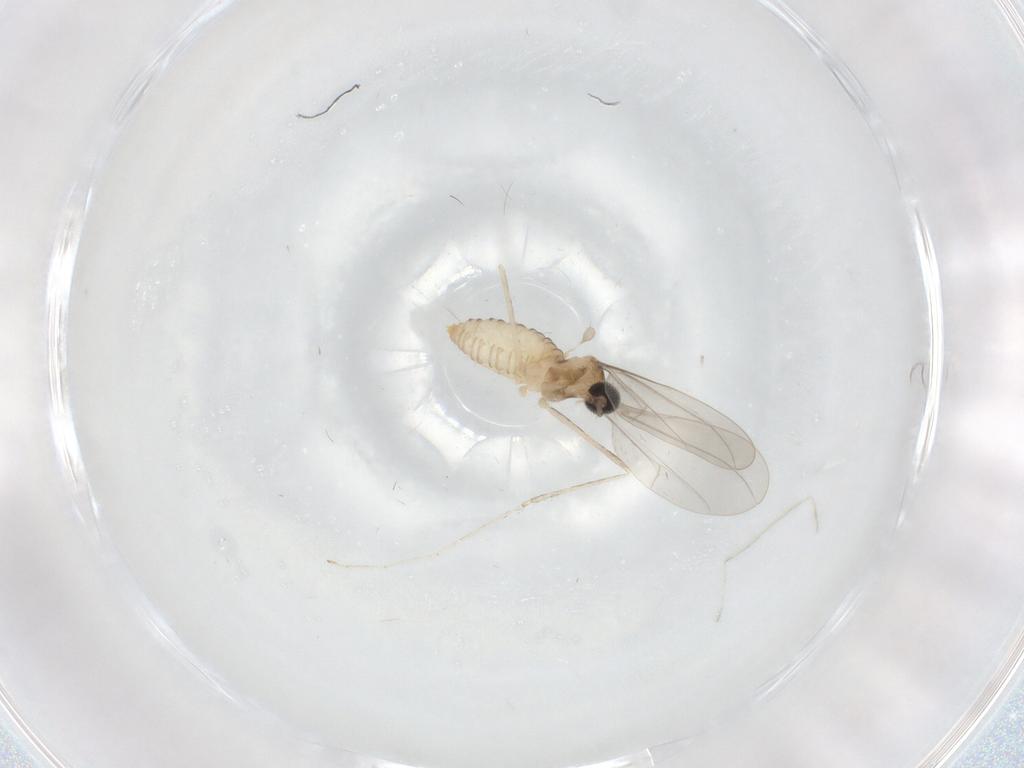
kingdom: Animalia
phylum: Arthropoda
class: Insecta
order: Diptera
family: Cecidomyiidae
